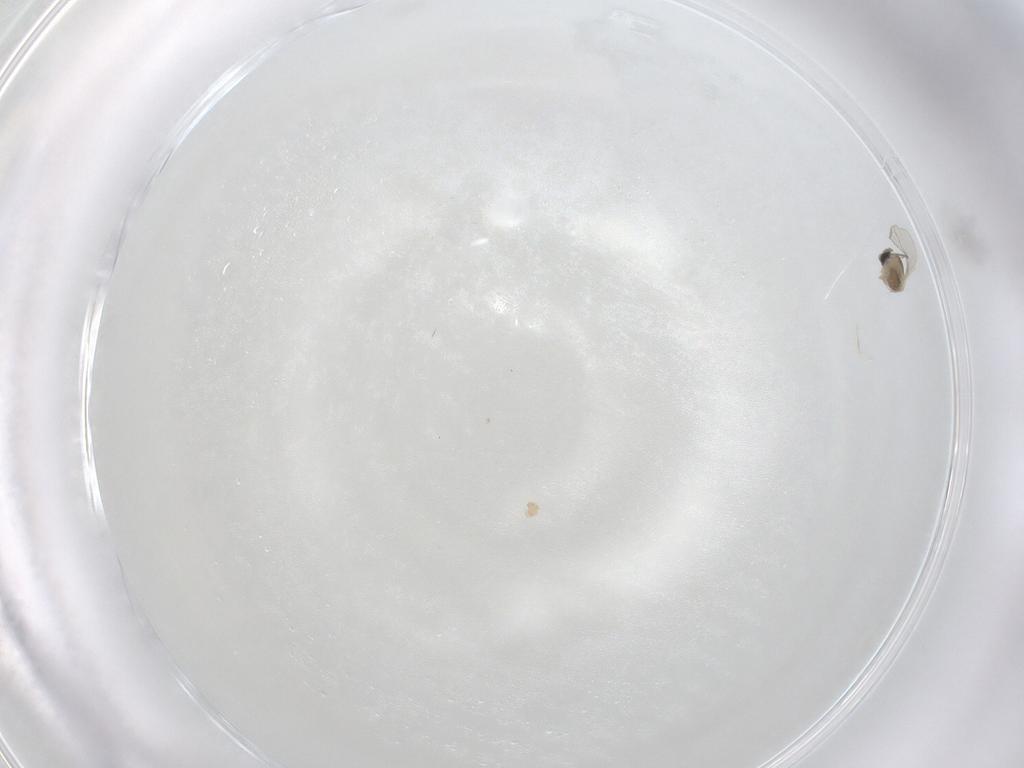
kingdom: Animalia
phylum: Arthropoda
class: Insecta
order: Diptera
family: Cecidomyiidae
